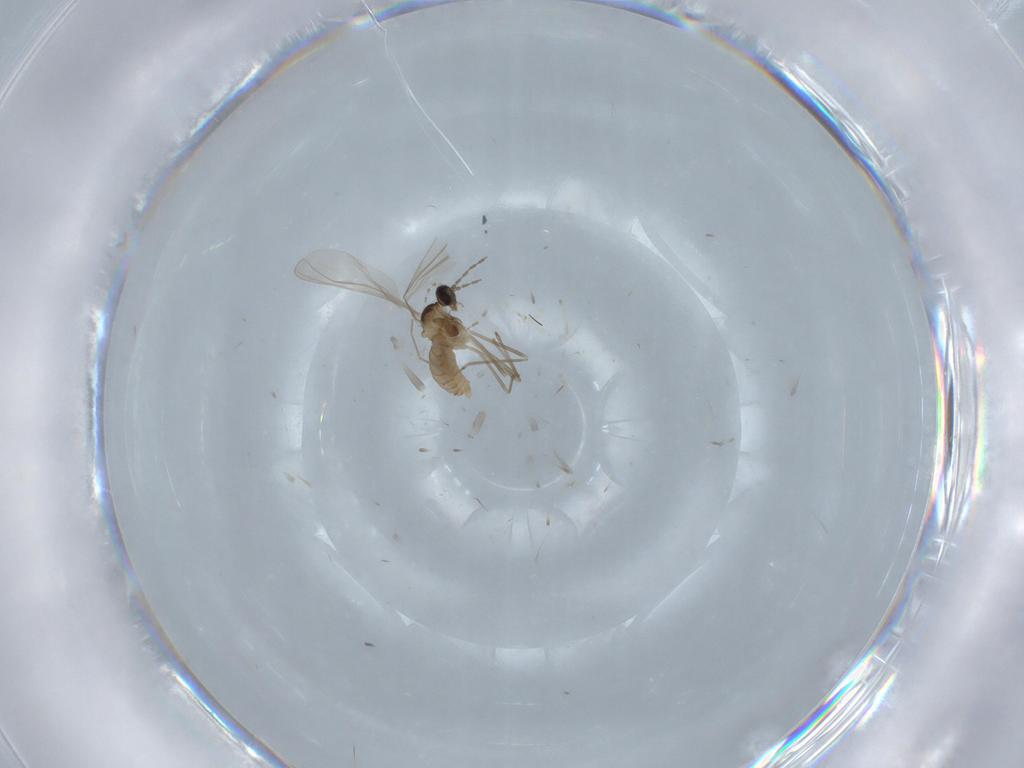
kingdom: Animalia
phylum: Arthropoda
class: Insecta
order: Diptera
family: Cecidomyiidae
